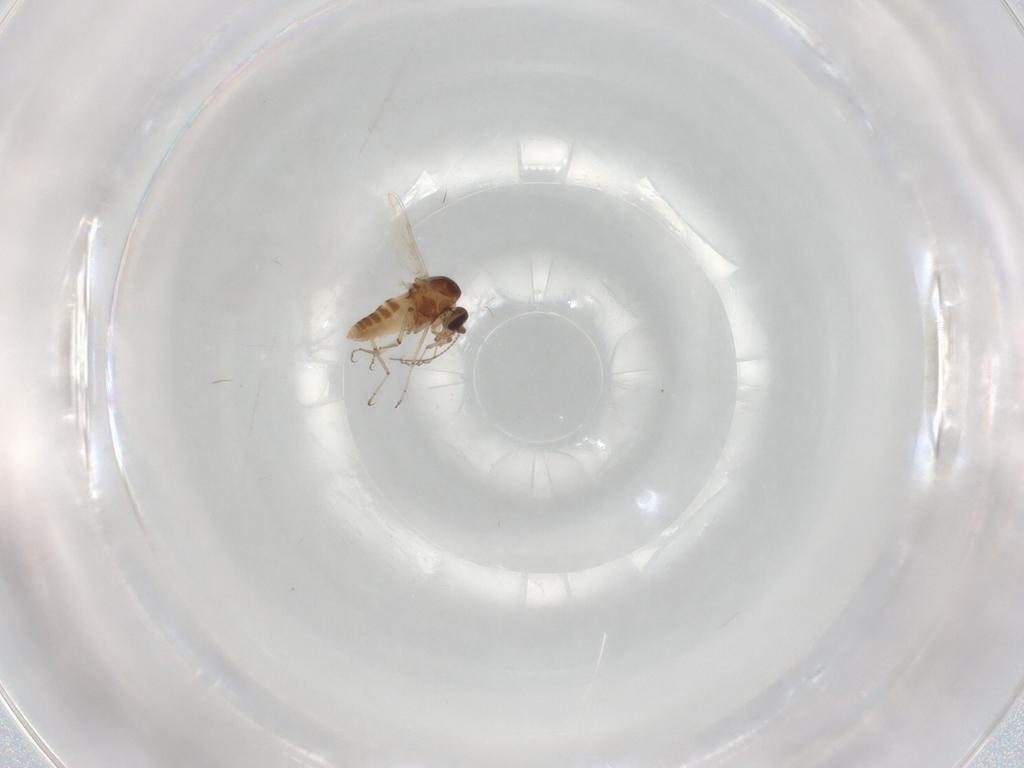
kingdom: Animalia
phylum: Arthropoda
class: Insecta
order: Diptera
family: Ceratopogonidae
